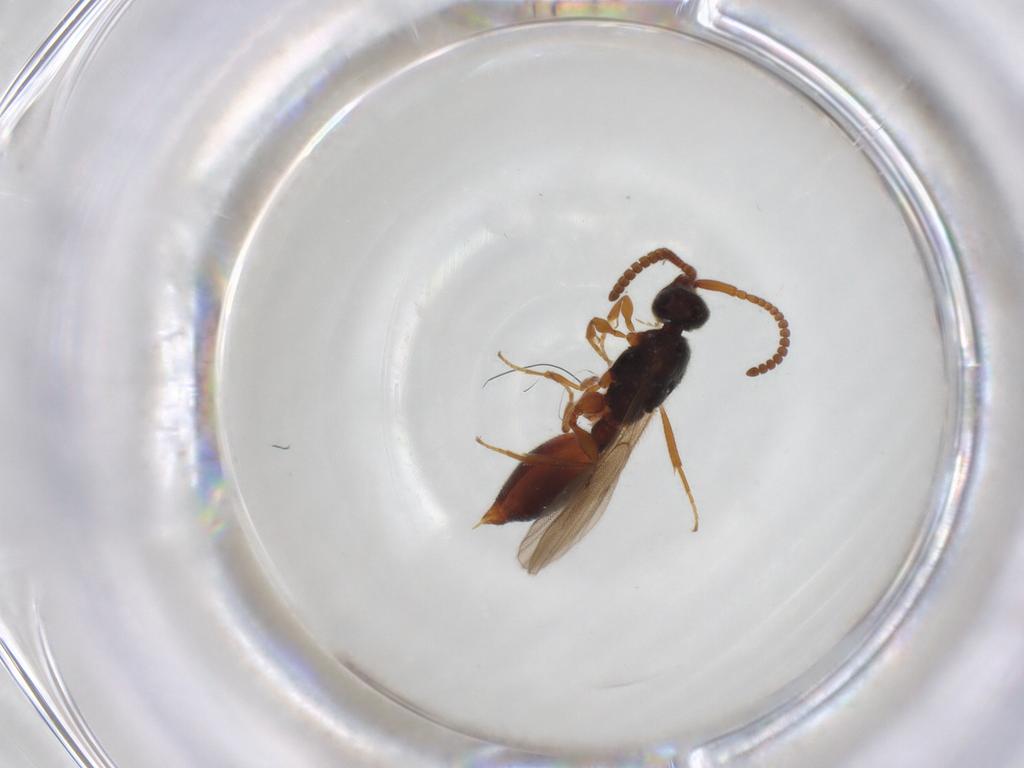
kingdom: Animalia
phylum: Arthropoda
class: Insecta
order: Hymenoptera
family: Diapriidae
